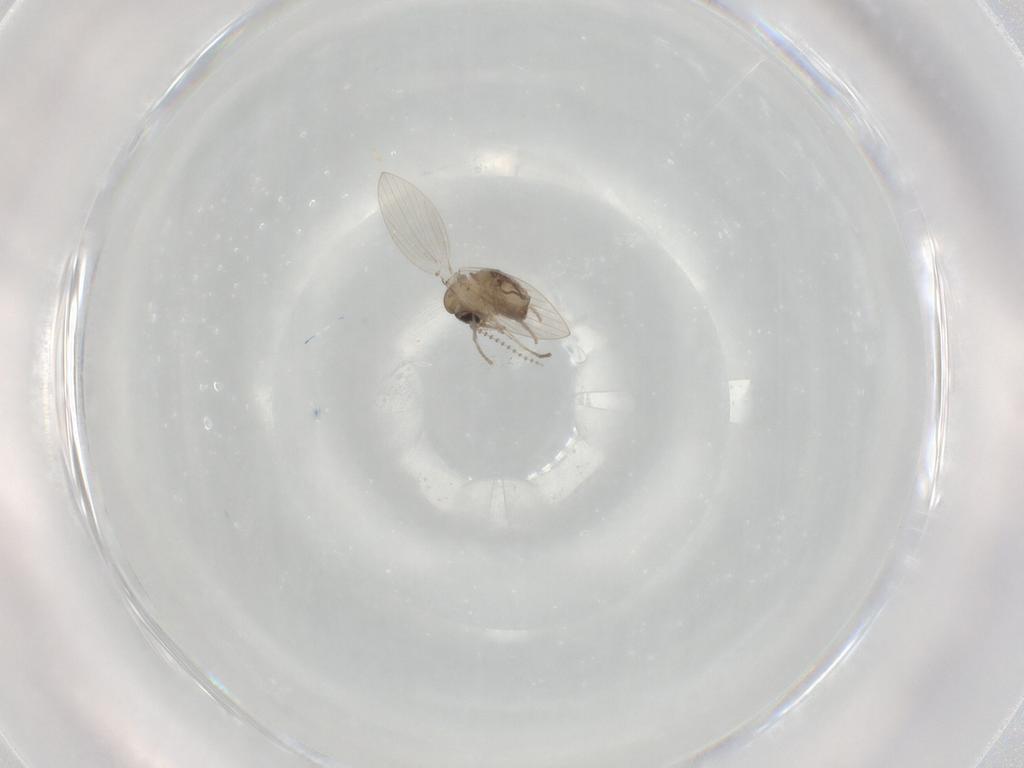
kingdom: Animalia
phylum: Arthropoda
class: Insecta
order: Diptera
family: Psychodidae
